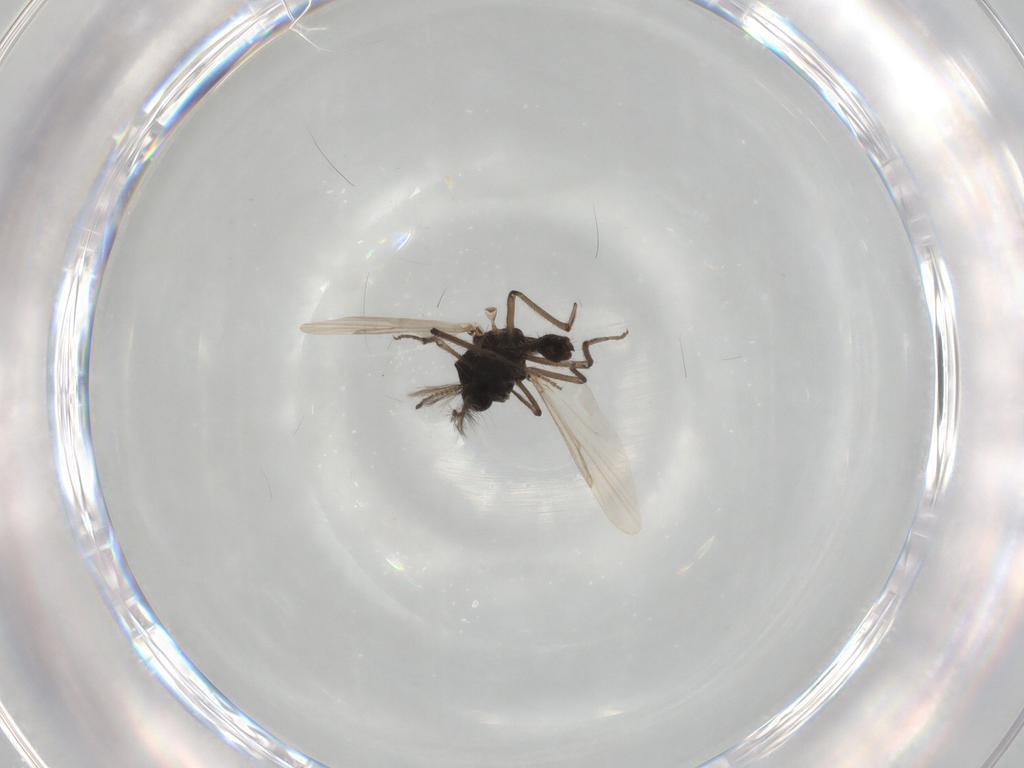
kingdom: Animalia
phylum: Arthropoda
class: Insecta
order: Diptera
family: Ceratopogonidae
